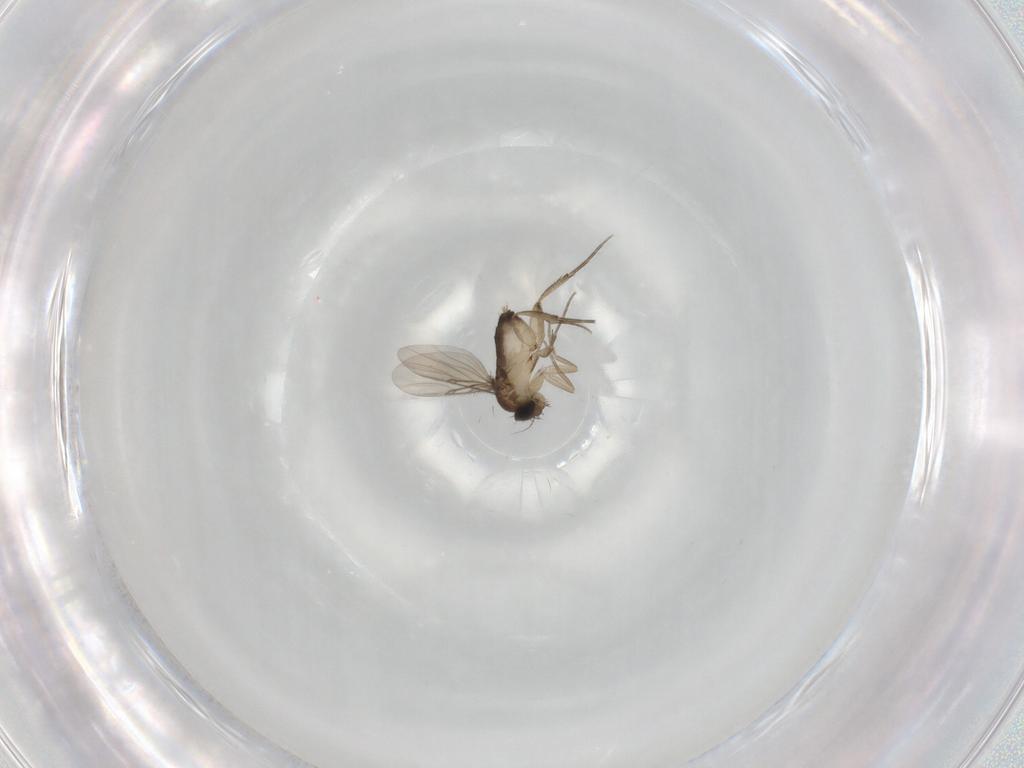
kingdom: Animalia
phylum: Arthropoda
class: Insecta
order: Diptera
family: Phoridae
